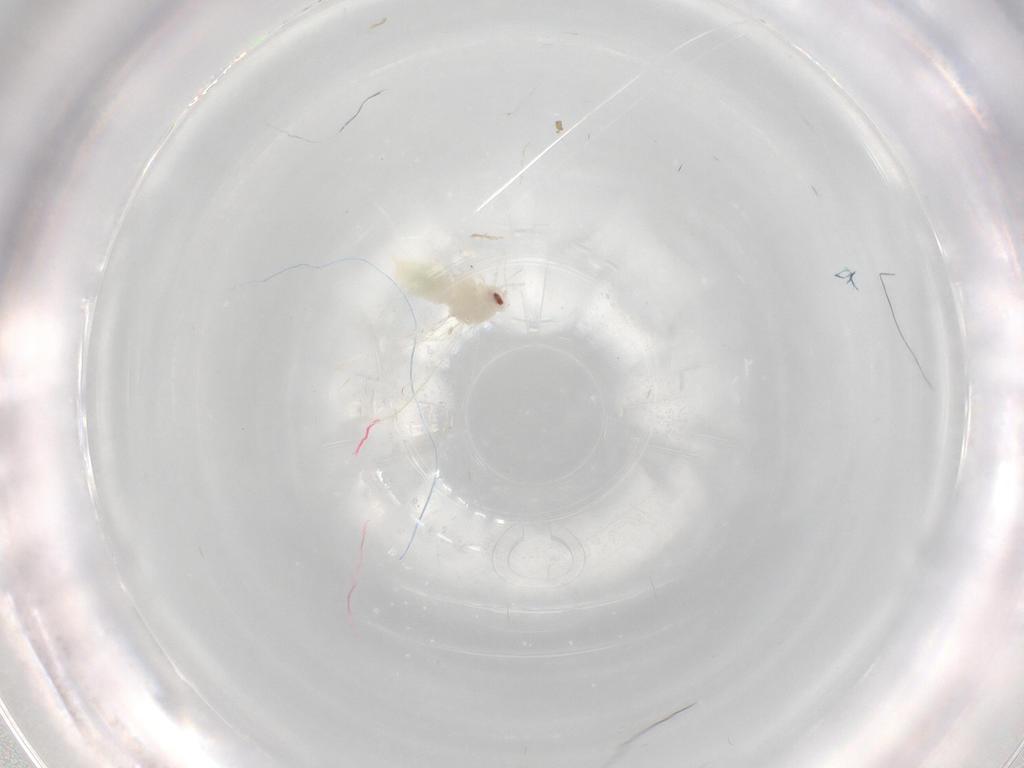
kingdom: Animalia
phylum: Arthropoda
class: Insecta
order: Hemiptera
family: Aleyrodidae
